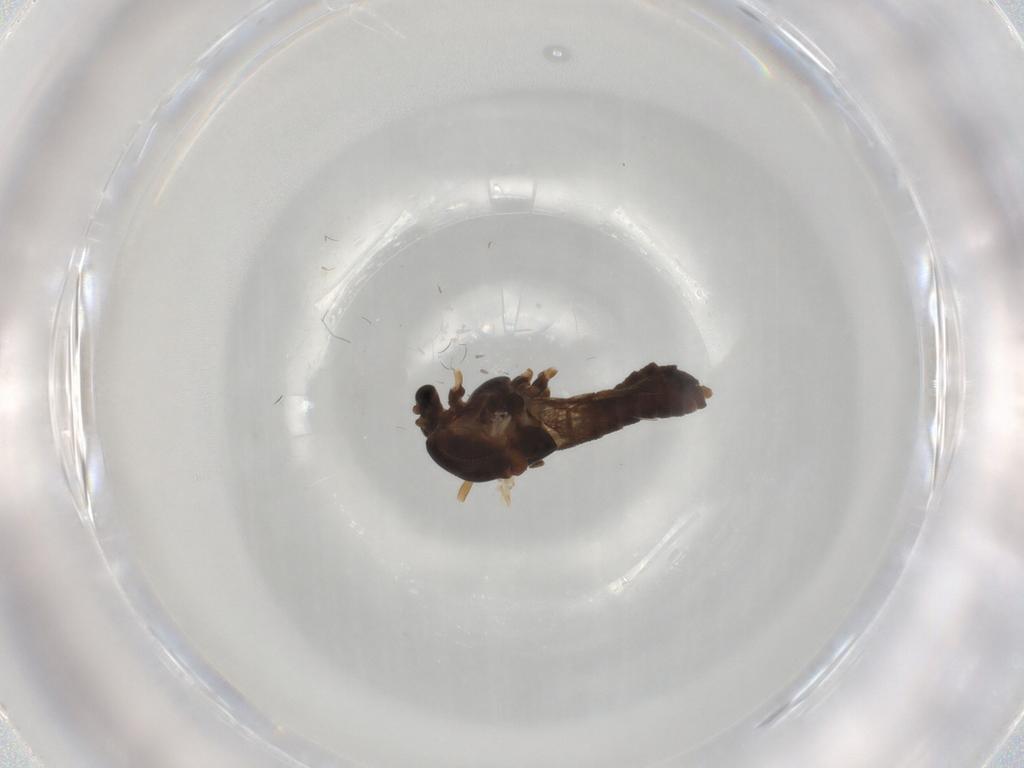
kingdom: Animalia
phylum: Arthropoda
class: Insecta
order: Diptera
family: Chironomidae
